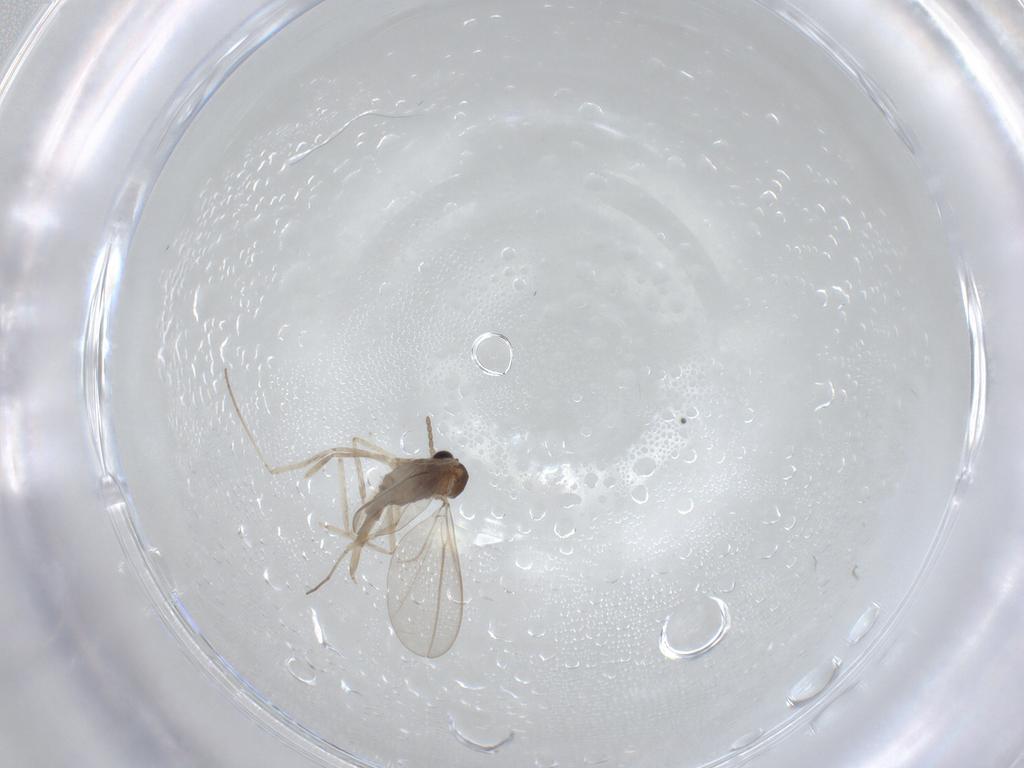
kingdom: Animalia
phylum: Arthropoda
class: Insecta
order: Diptera
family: Cecidomyiidae
